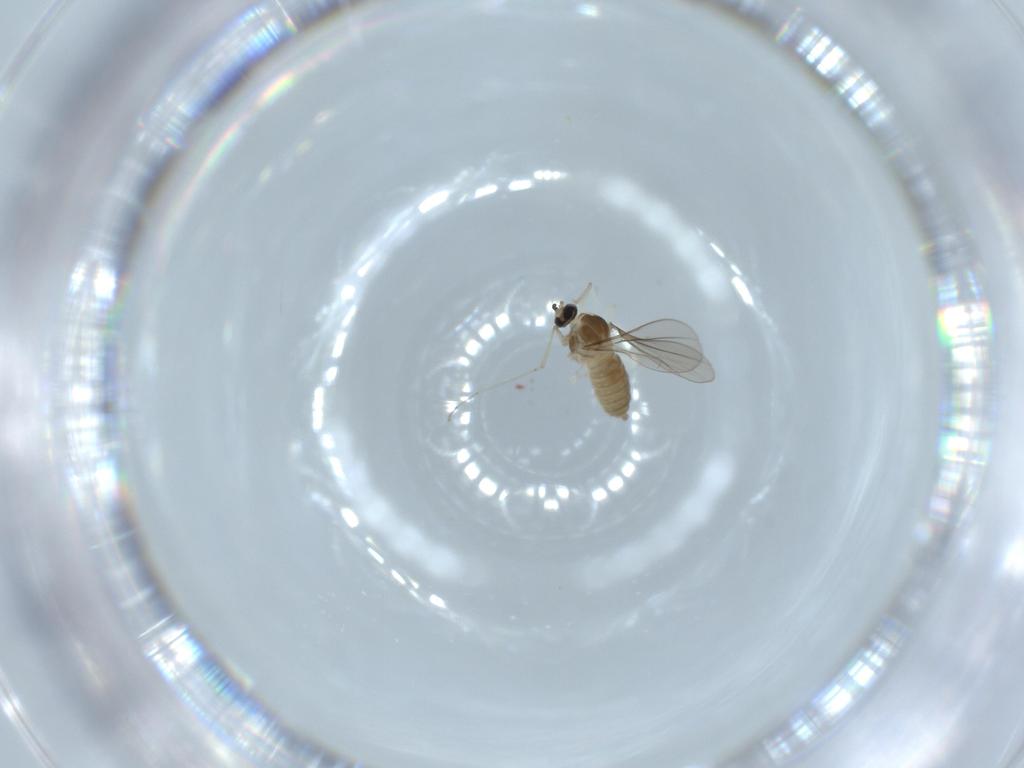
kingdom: Animalia
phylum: Arthropoda
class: Insecta
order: Diptera
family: Cecidomyiidae
